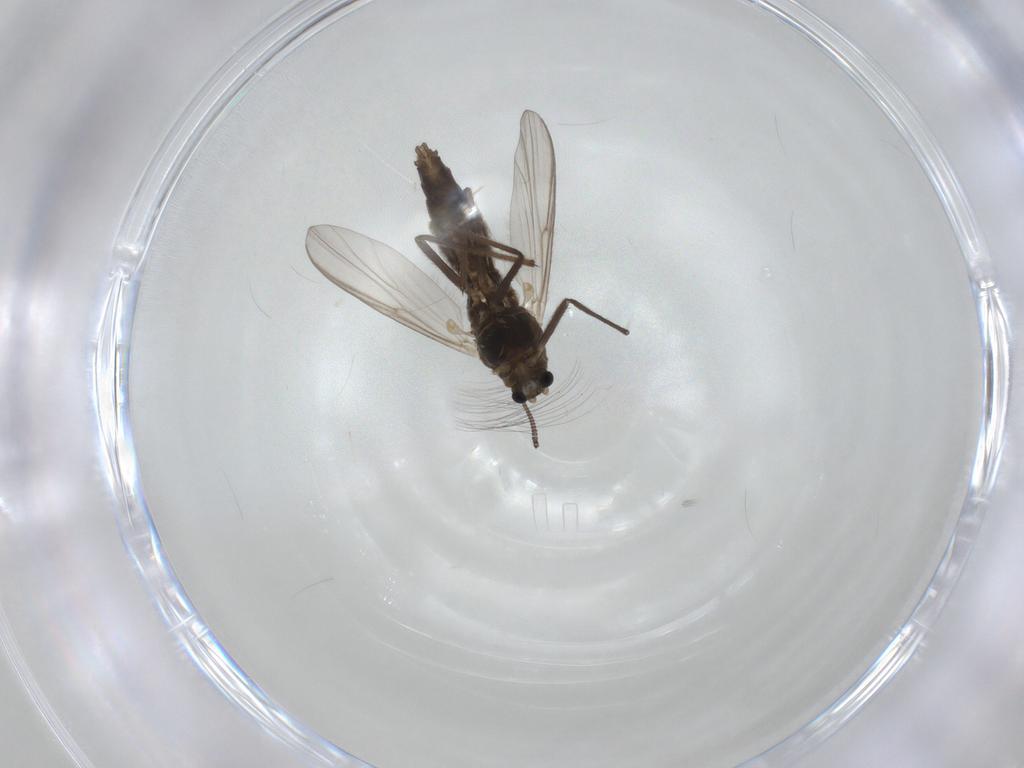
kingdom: Animalia
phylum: Arthropoda
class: Insecta
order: Diptera
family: Chironomidae
